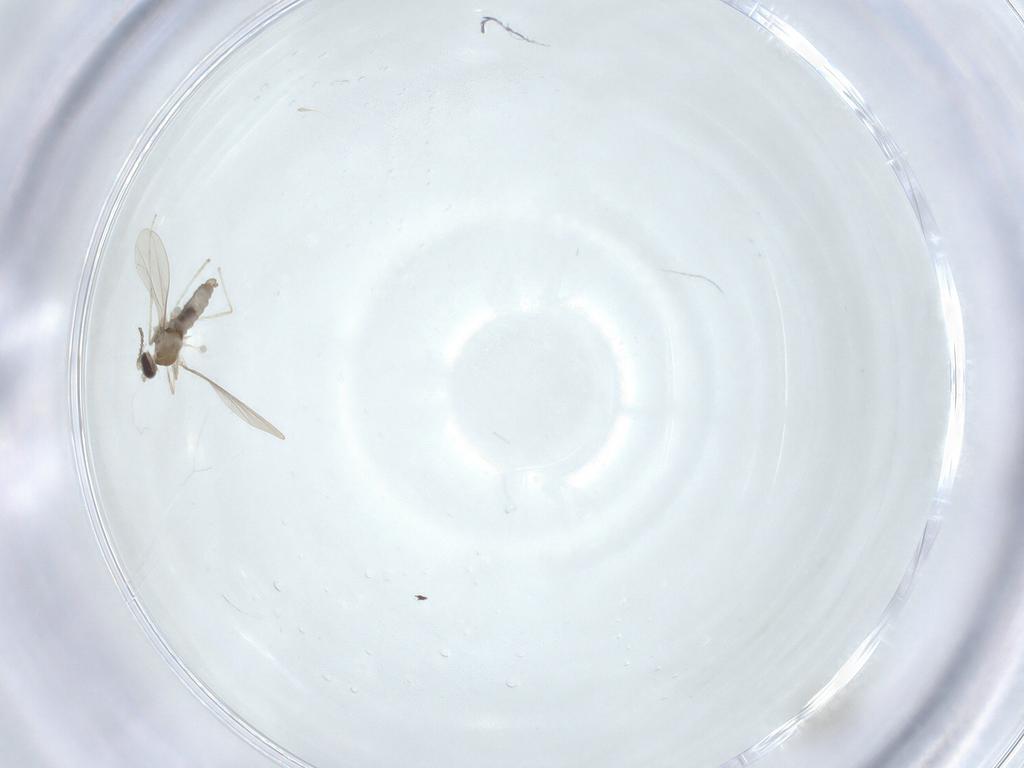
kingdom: Animalia
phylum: Arthropoda
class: Insecta
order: Diptera
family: Cecidomyiidae
